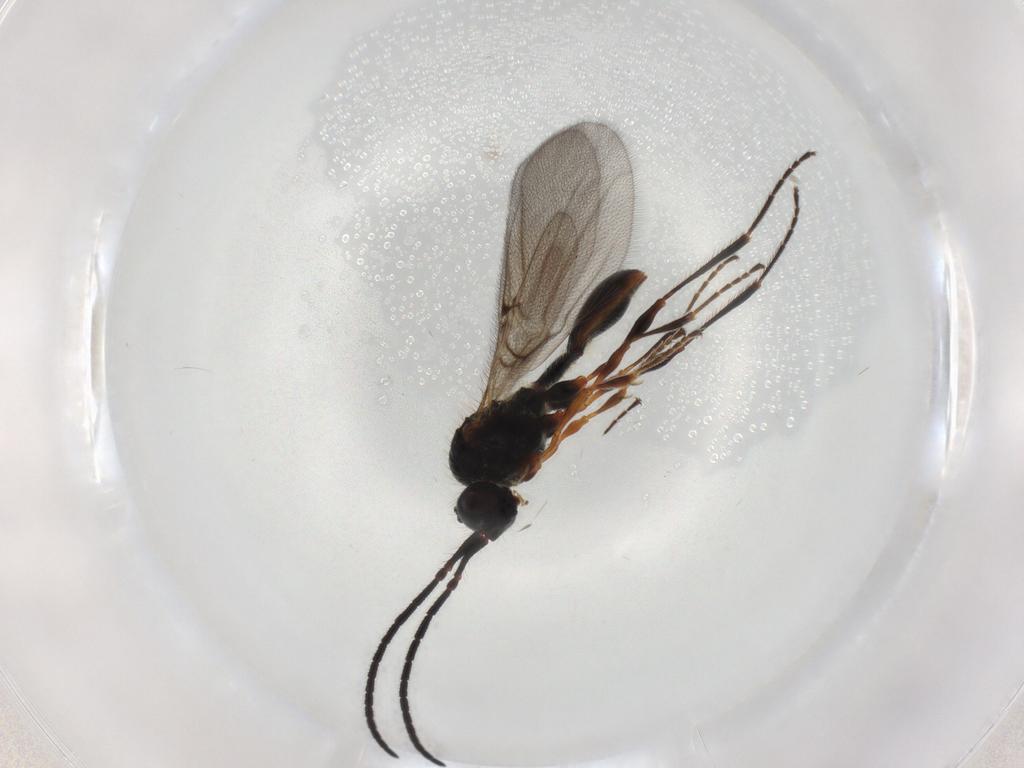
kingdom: Animalia
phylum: Arthropoda
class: Insecta
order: Hymenoptera
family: Diapriidae
